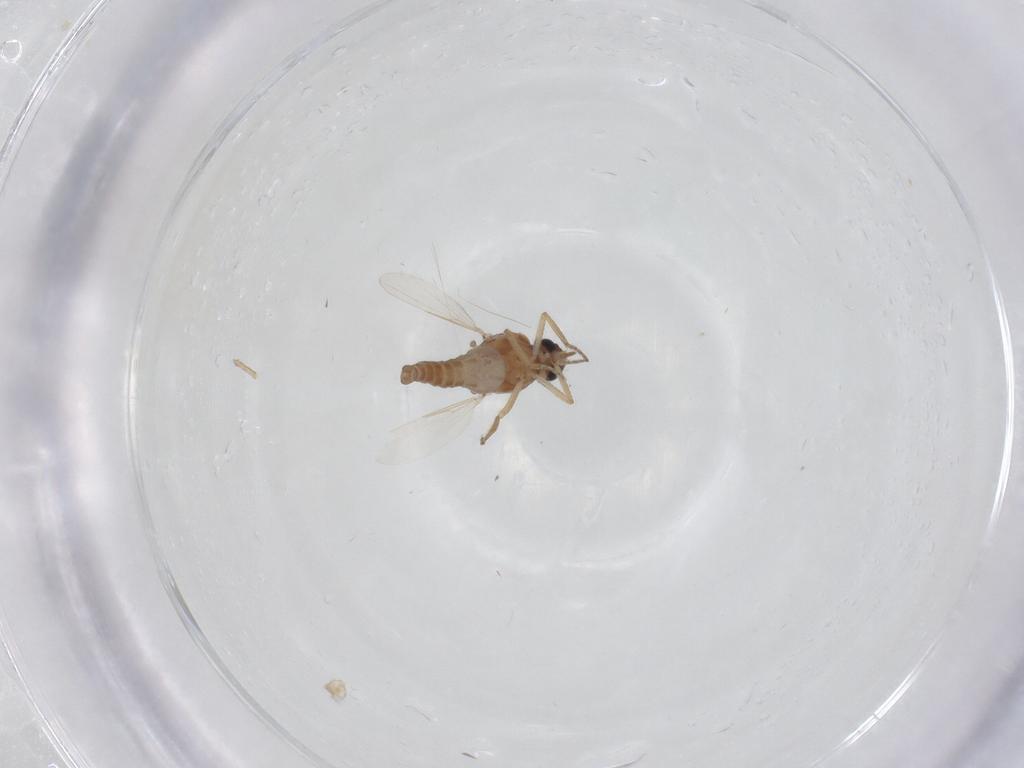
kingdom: Animalia
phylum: Arthropoda
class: Insecta
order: Diptera
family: Ceratopogonidae
